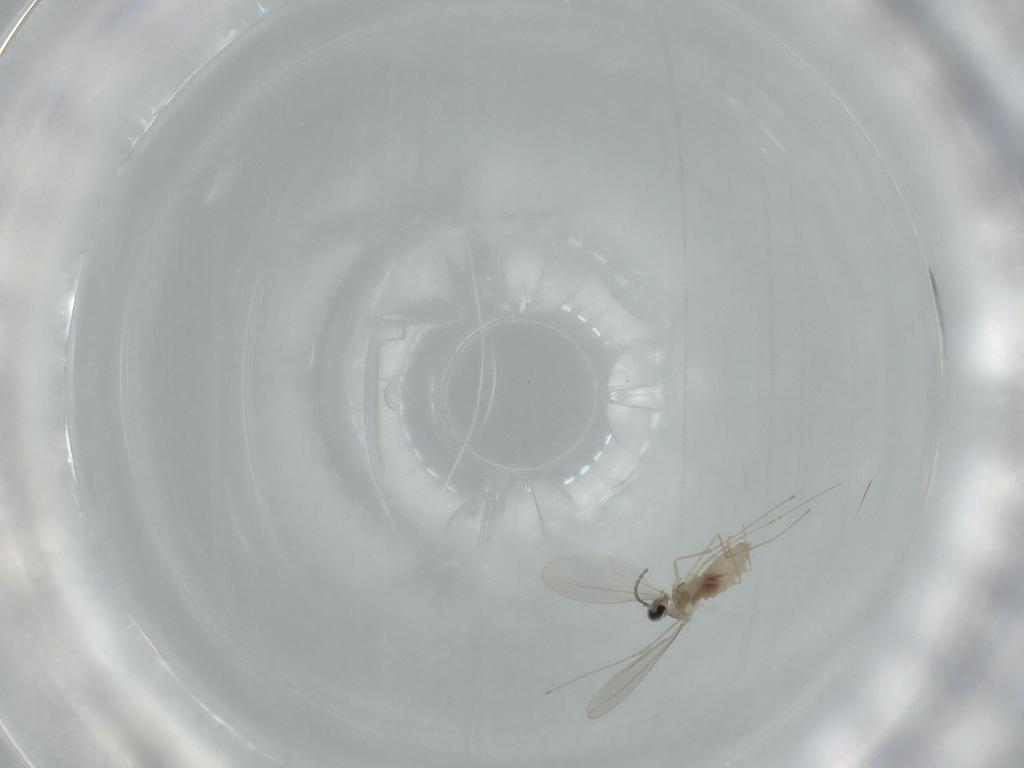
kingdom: Animalia
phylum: Arthropoda
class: Insecta
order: Diptera
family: Cecidomyiidae
